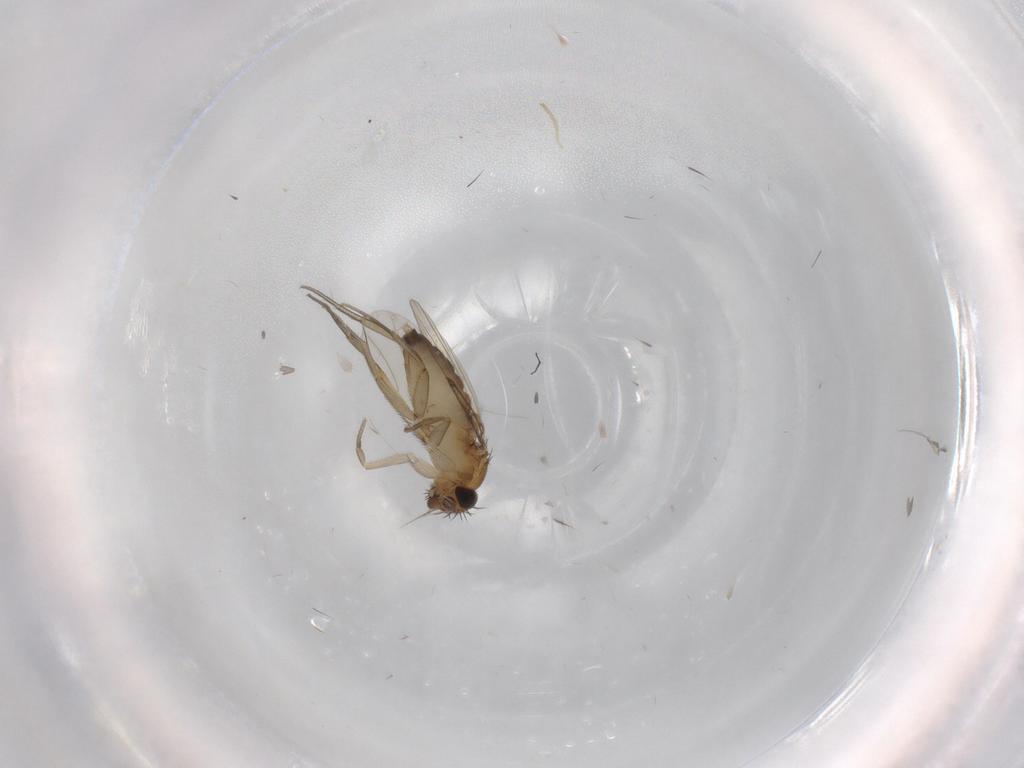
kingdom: Animalia
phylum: Arthropoda
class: Insecta
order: Diptera
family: Phoridae
